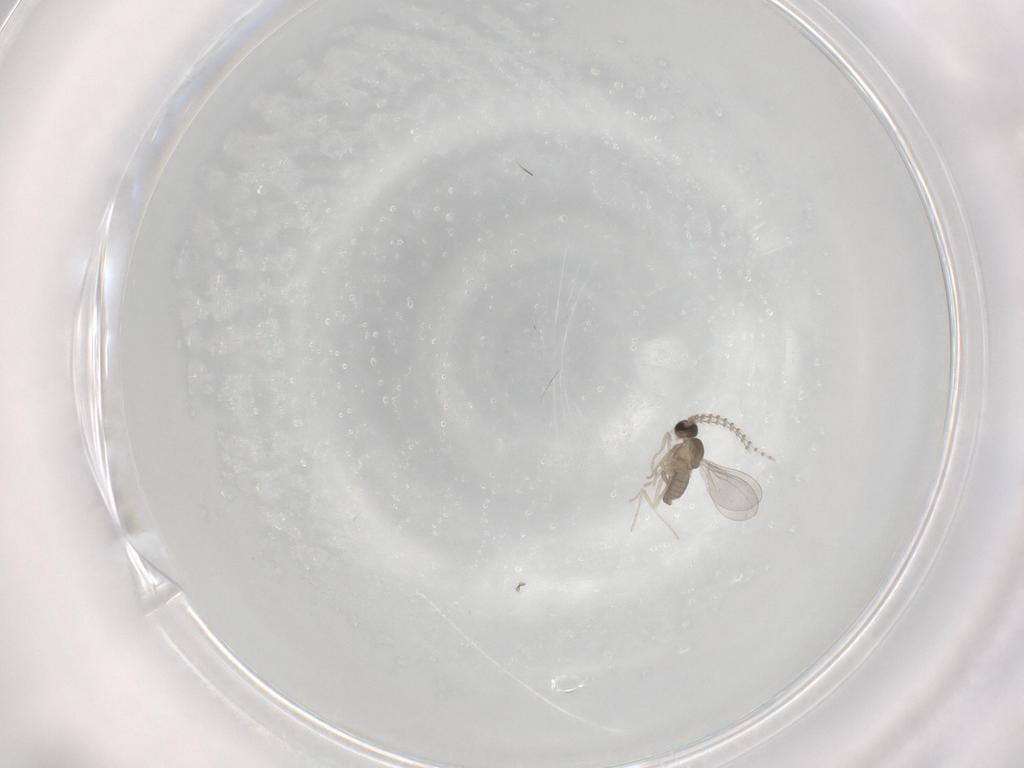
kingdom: Animalia
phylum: Arthropoda
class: Insecta
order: Diptera
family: Sciaridae
